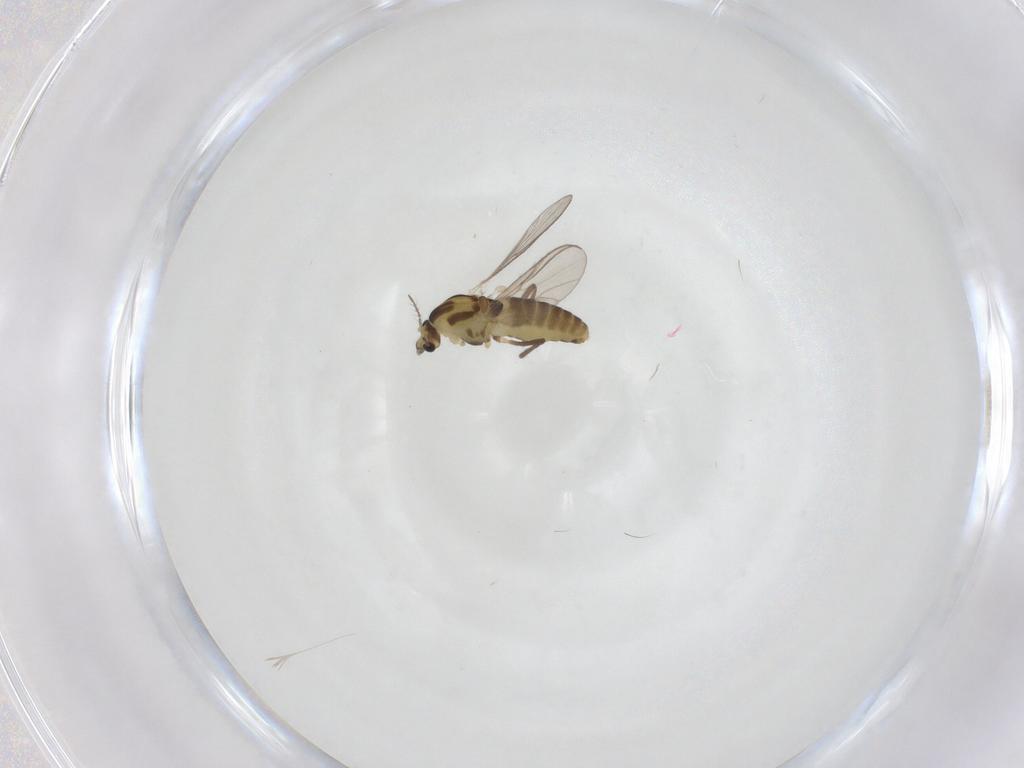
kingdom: Animalia
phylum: Arthropoda
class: Insecta
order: Diptera
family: Chironomidae
